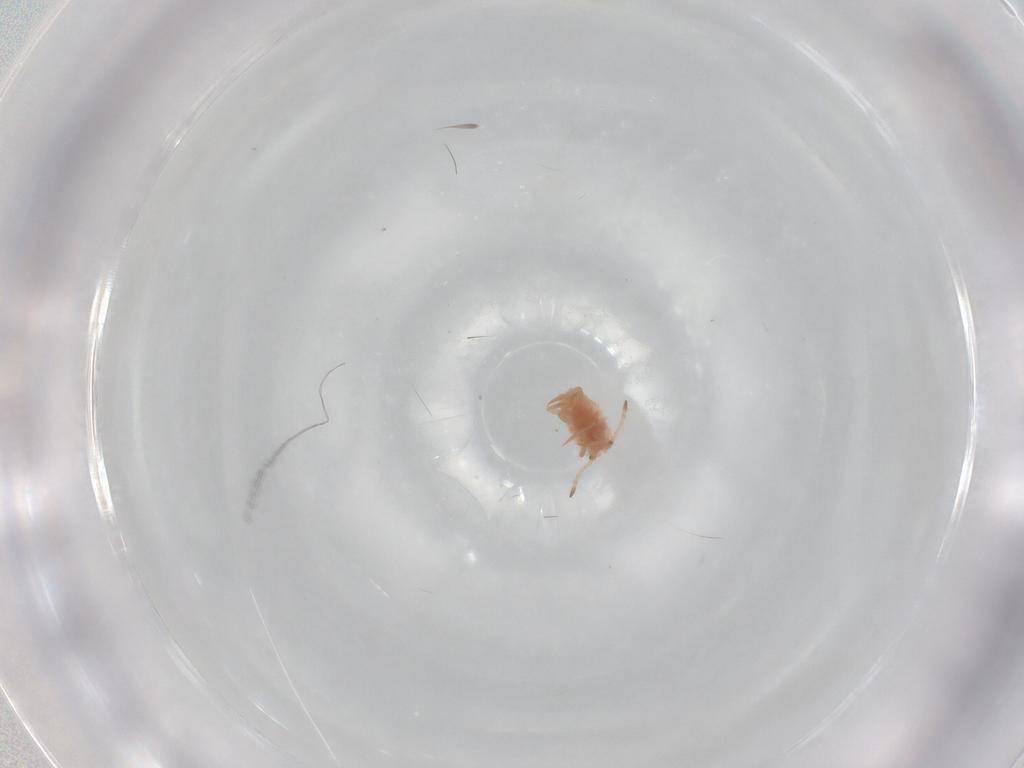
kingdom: Animalia
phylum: Arthropoda
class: Insecta
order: Hemiptera
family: Coccoidea_incertae_sedis
